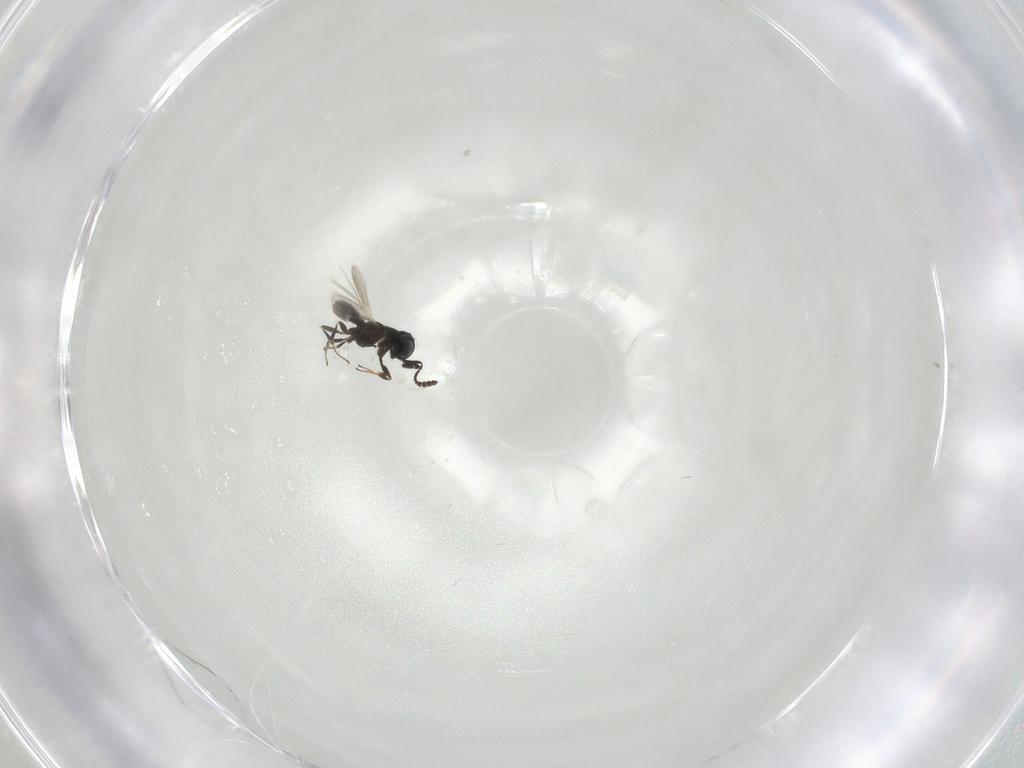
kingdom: Animalia
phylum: Arthropoda
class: Insecta
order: Hymenoptera
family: Scelionidae
